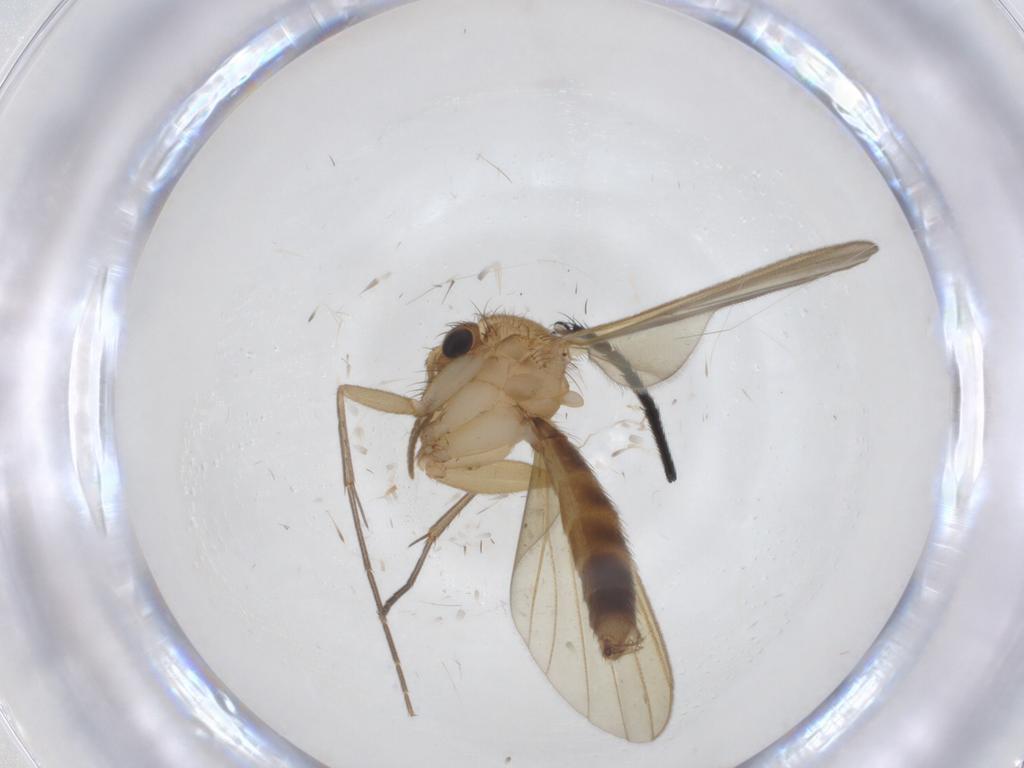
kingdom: Animalia
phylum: Arthropoda
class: Insecta
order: Diptera
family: Mycetophilidae
